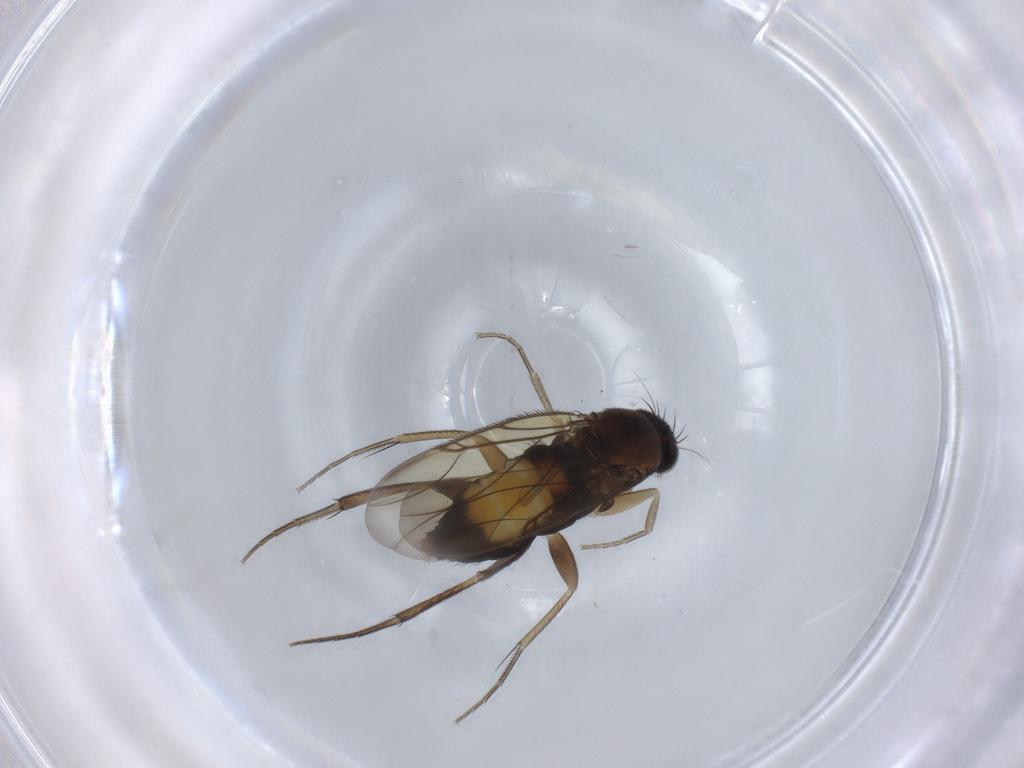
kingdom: Animalia
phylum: Arthropoda
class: Insecta
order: Diptera
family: Phoridae
